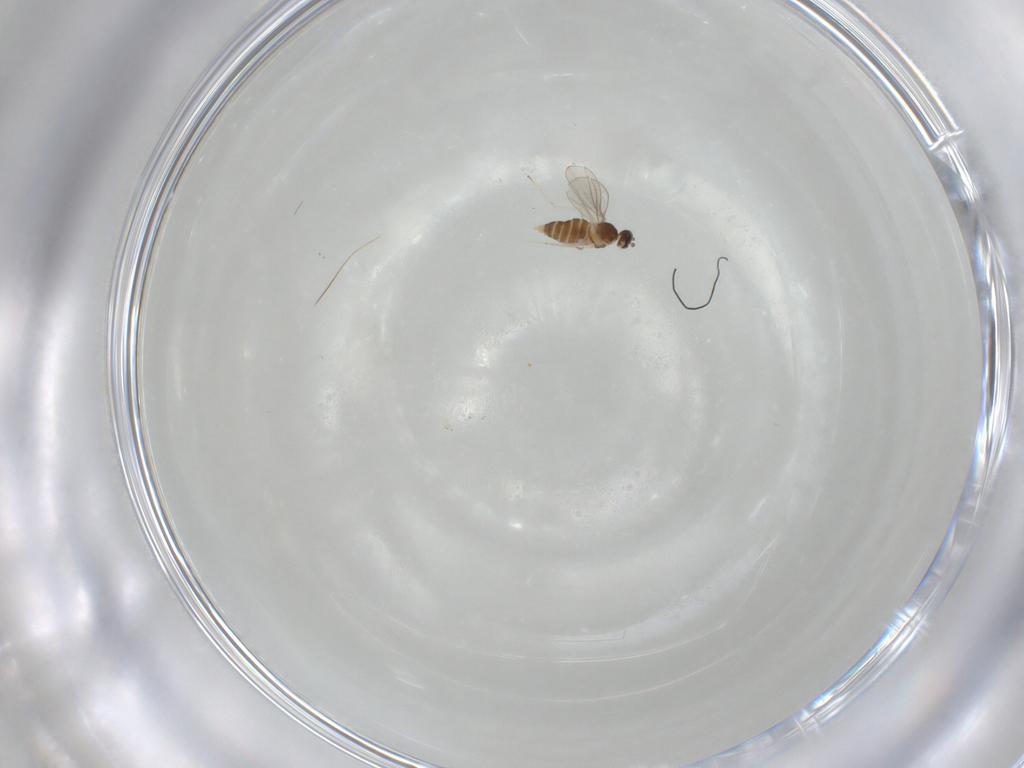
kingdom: Animalia
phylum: Arthropoda
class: Insecta
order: Diptera
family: Cecidomyiidae
